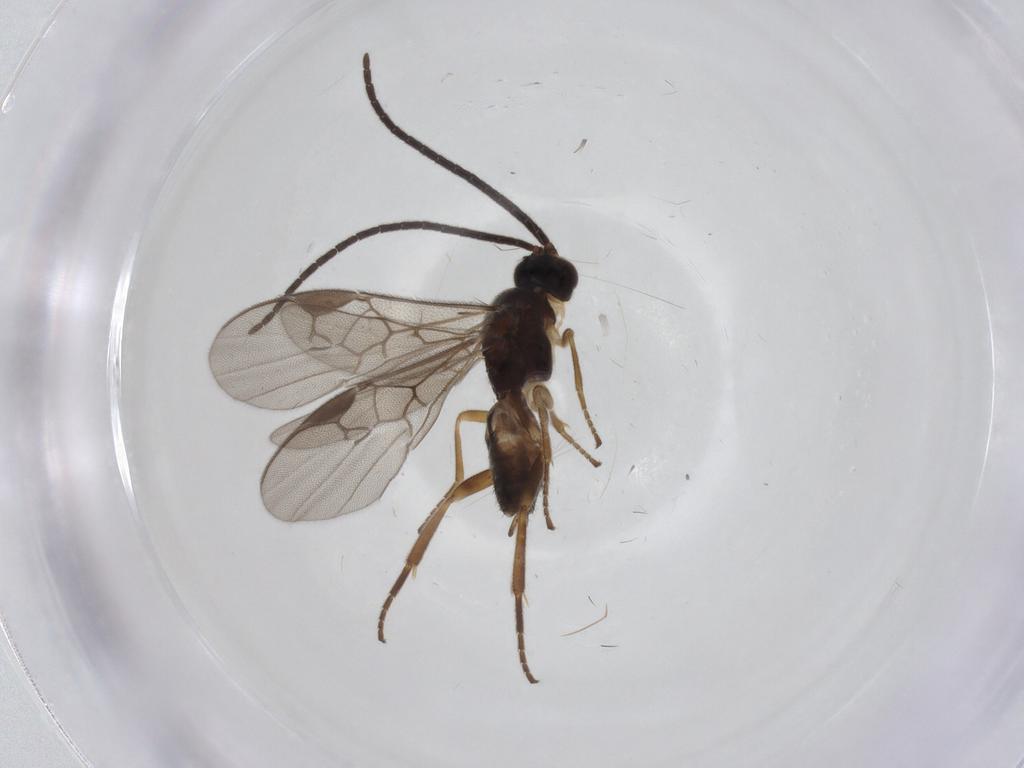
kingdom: Animalia
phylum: Arthropoda
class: Insecta
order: Hymenoptera
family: Braconidae
